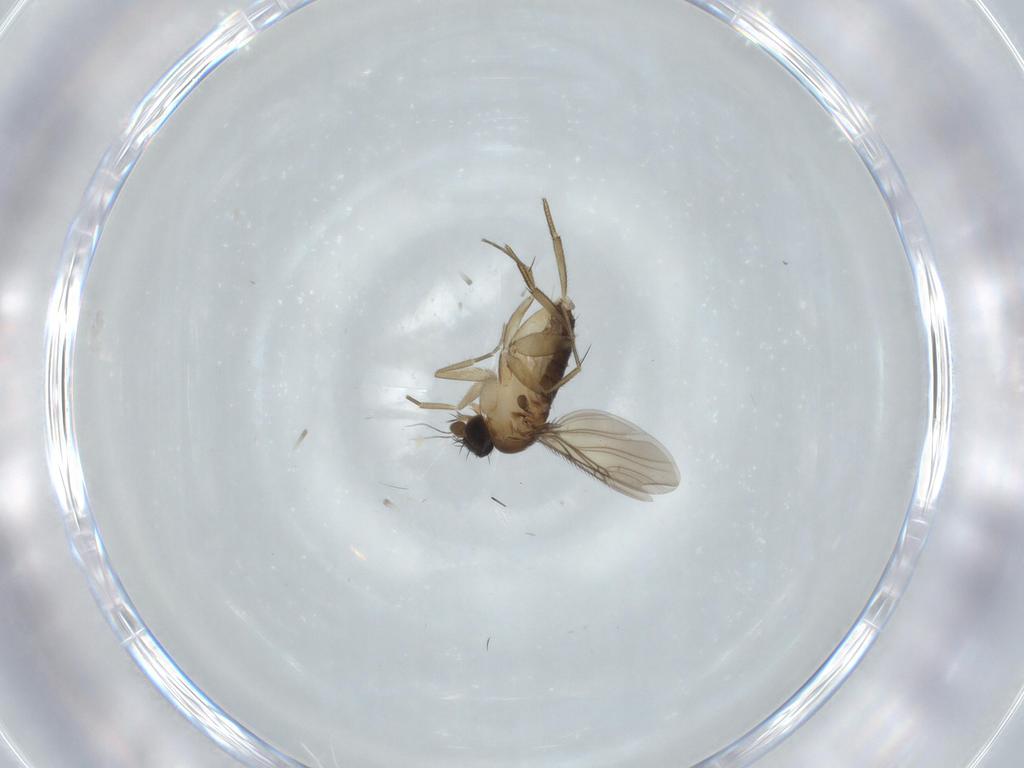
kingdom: Animalia
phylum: Arthropoda
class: Insecta
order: Diptera
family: Phoridae
